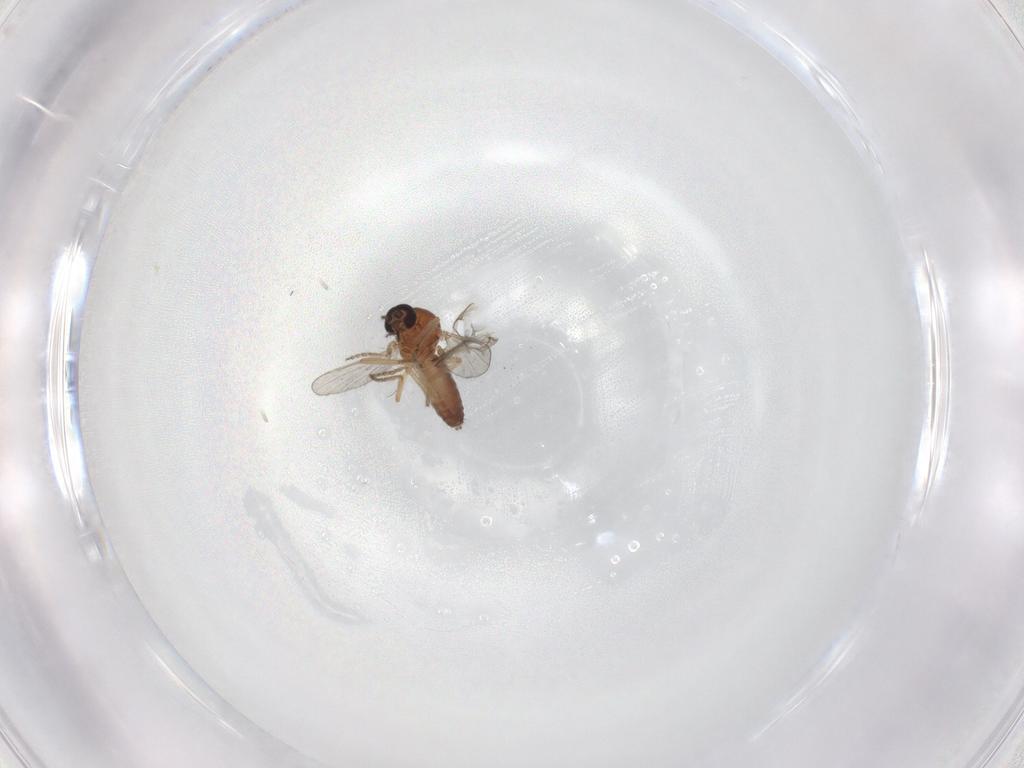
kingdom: Animalia
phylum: Arthropoda
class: Insecta
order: Diptera
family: Ceratopogonidae
